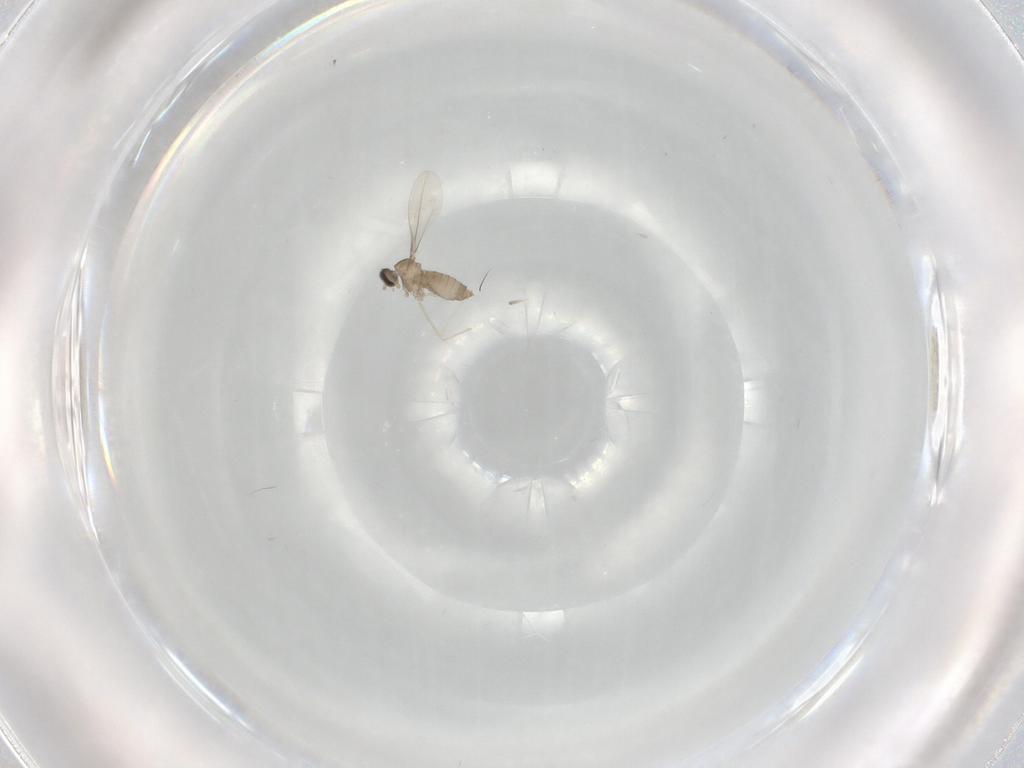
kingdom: Animalia
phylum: Arthropoda
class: Insecta
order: Diptera
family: Cecidomyiidae
